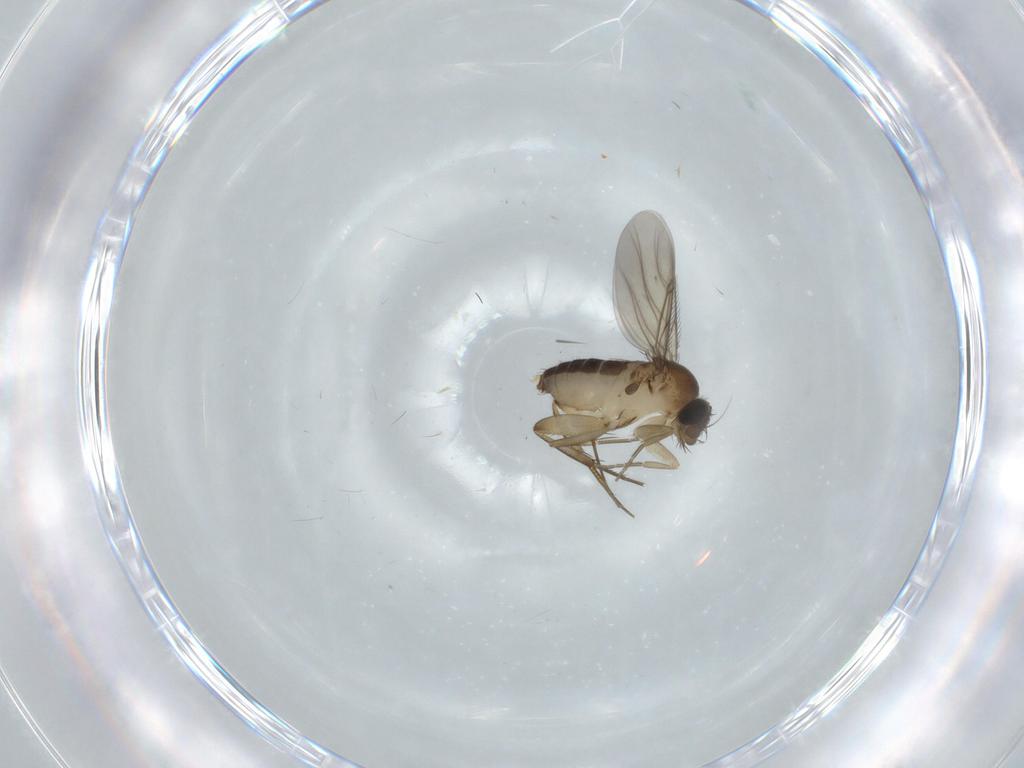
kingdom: Animalia
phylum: Arthropoda
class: Insecta
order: Diptera
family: Phoridae
